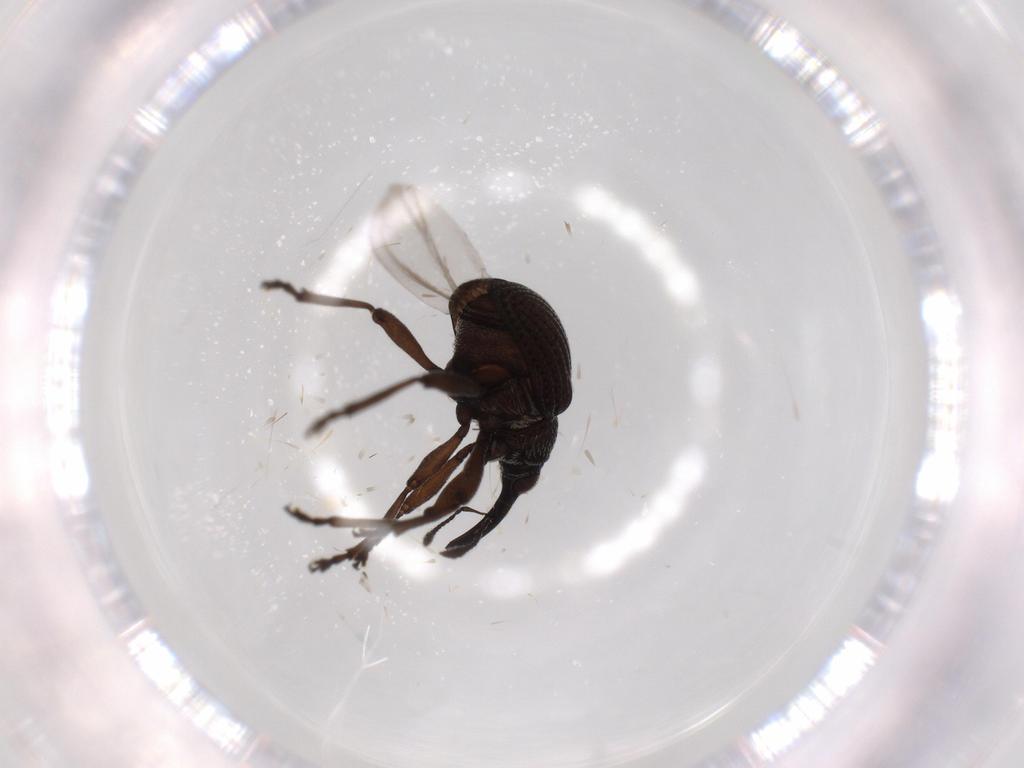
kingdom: Animalia
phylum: Arthropoda
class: Insecta
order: Coleoptera
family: Brentidae
